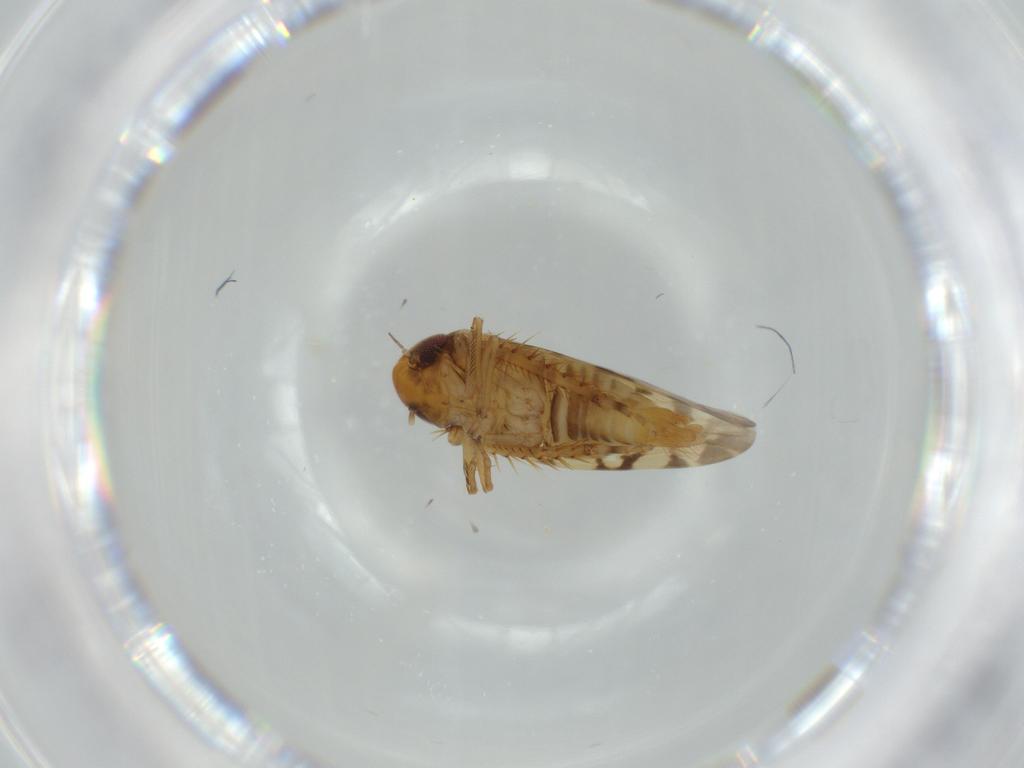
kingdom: Animalia
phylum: Arthropoda
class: Insecta
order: Hemiptera
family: Cicadellidae
